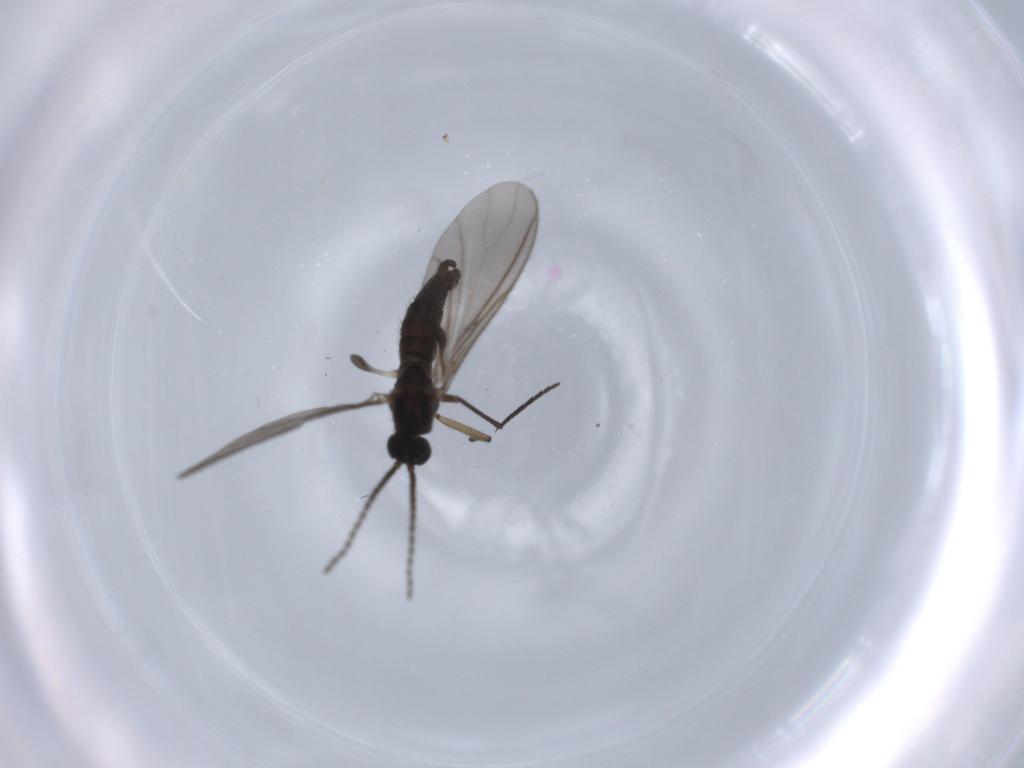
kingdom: Animalia
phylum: Arthropoda
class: Insecta
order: Diptera
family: Sciaridae
